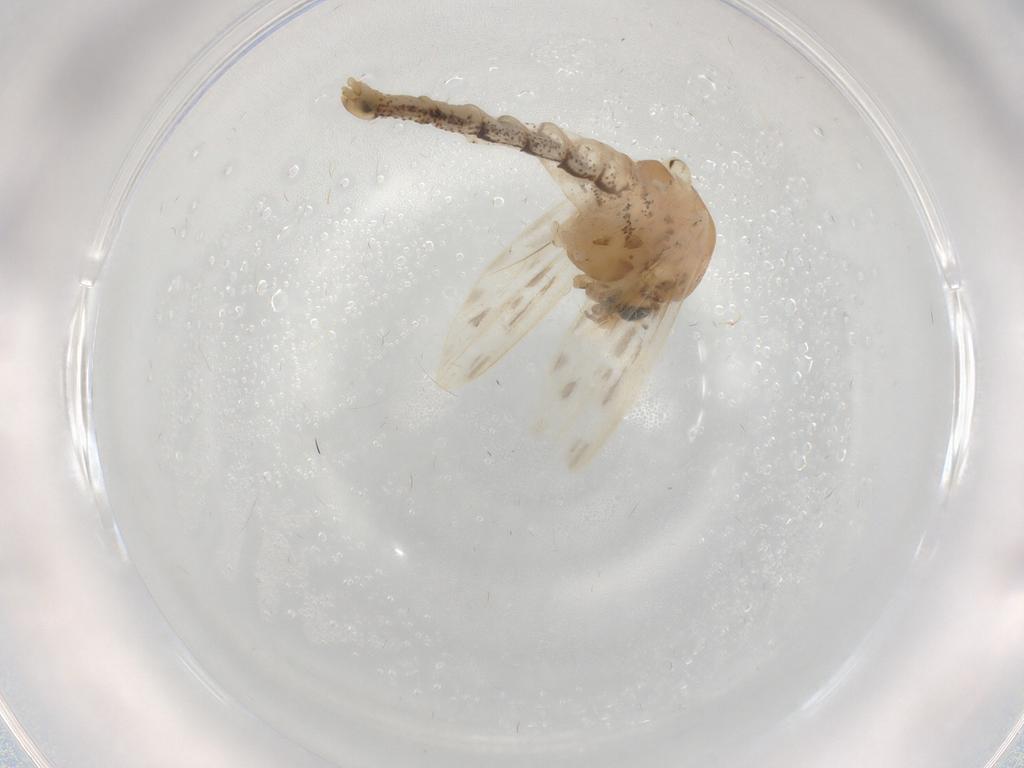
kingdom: Animalia
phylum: Arthropoda
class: Insecta
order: Diptera
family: Chaoboridae
